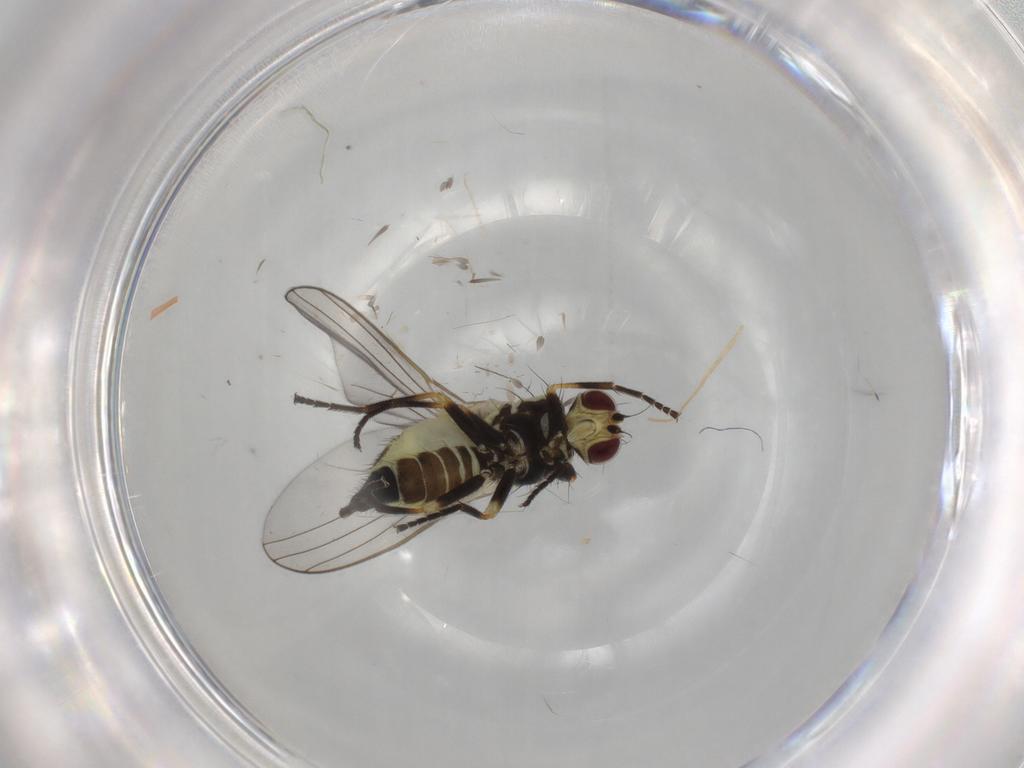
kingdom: Animalia
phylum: Arthropoda
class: Insecta
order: Diptera
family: Agromyzidae
